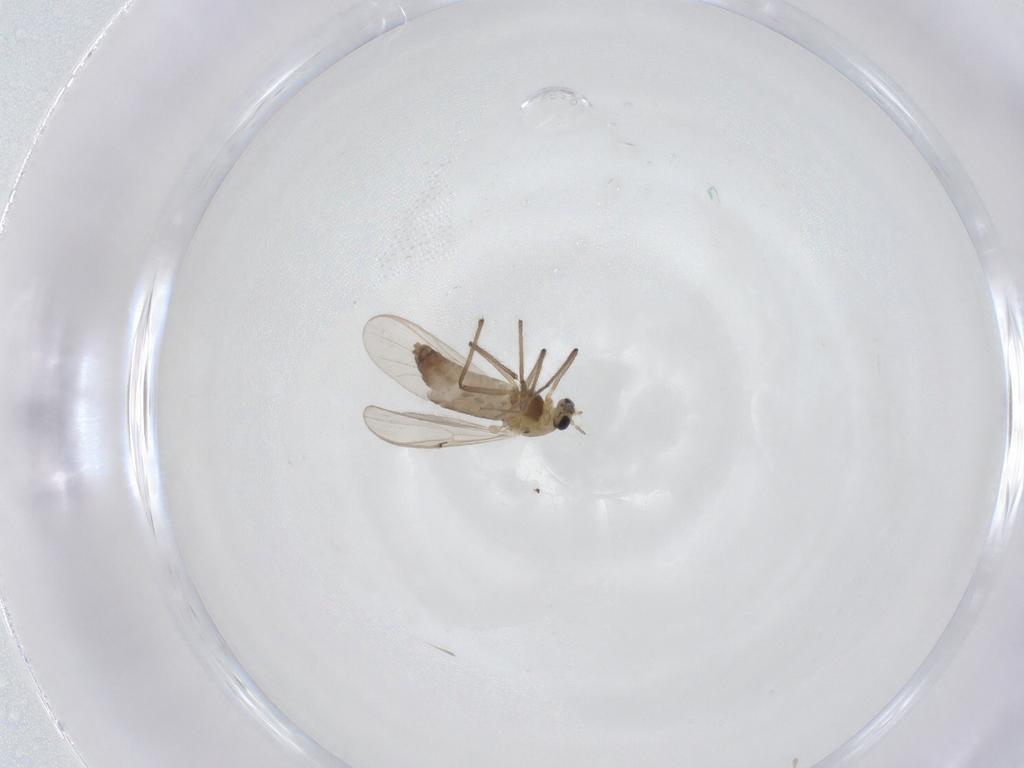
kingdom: Animalia
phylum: Arthropoda
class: Insecta
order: Diptera
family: Chironomidae
